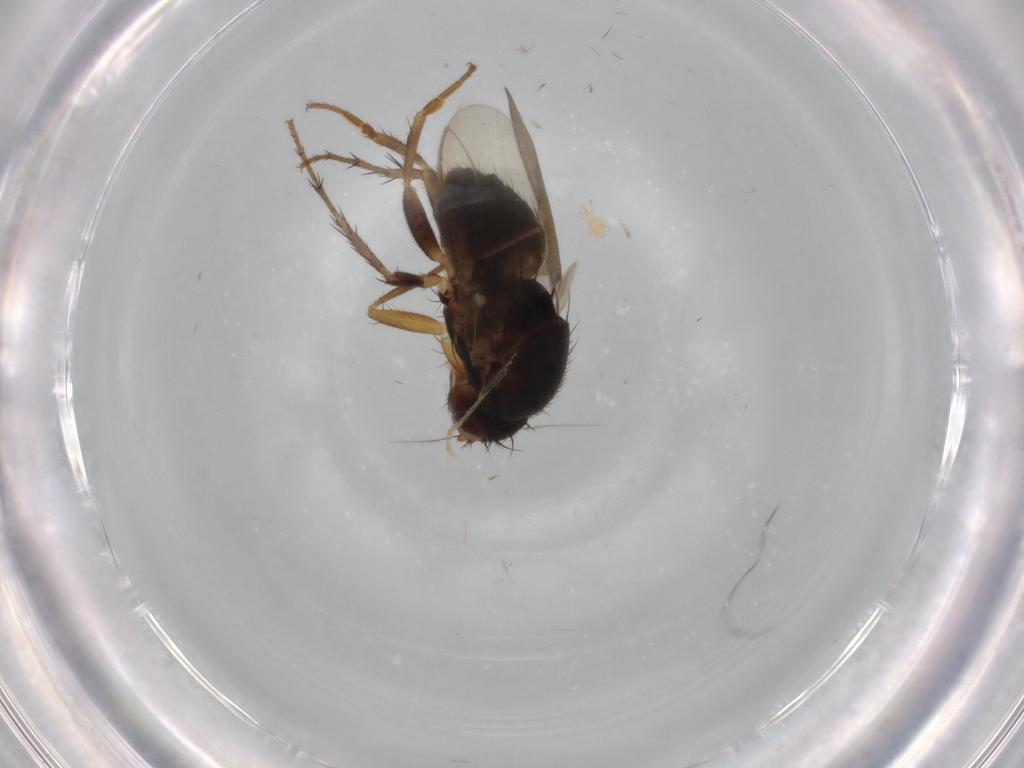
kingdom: Animalia
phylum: Arthropoda
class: Insecta
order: Diptera
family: Sphaeroceridae
